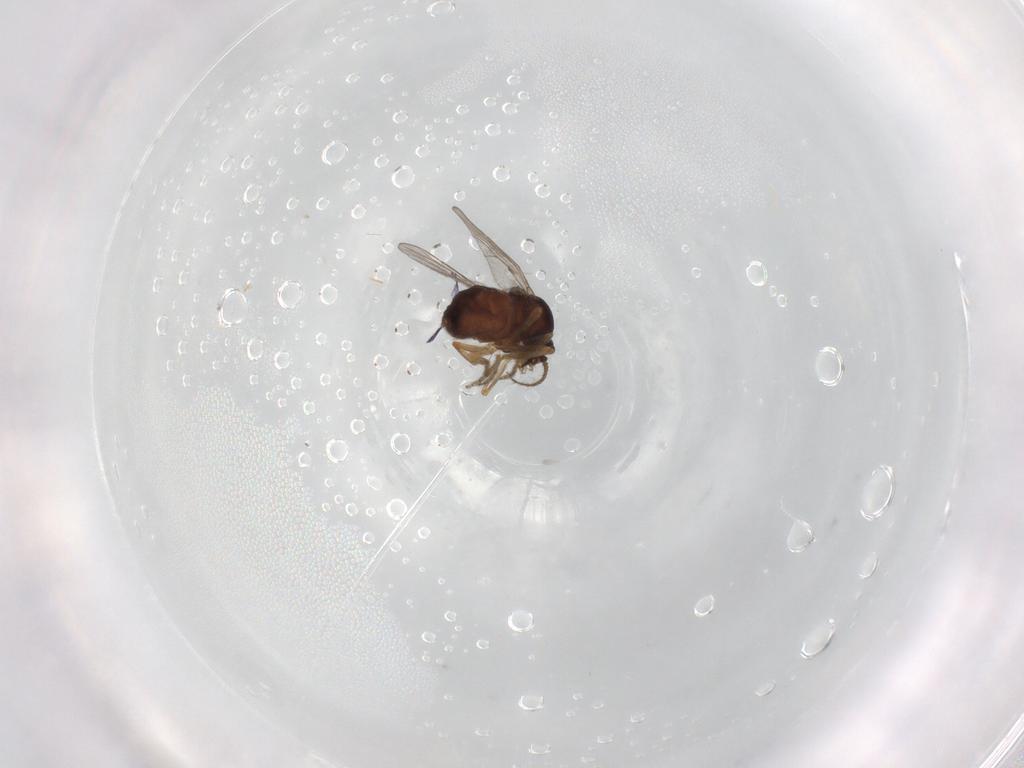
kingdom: Animalia
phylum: Arthropoda
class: Insecta
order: Diptera
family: Ceratopogonidae
